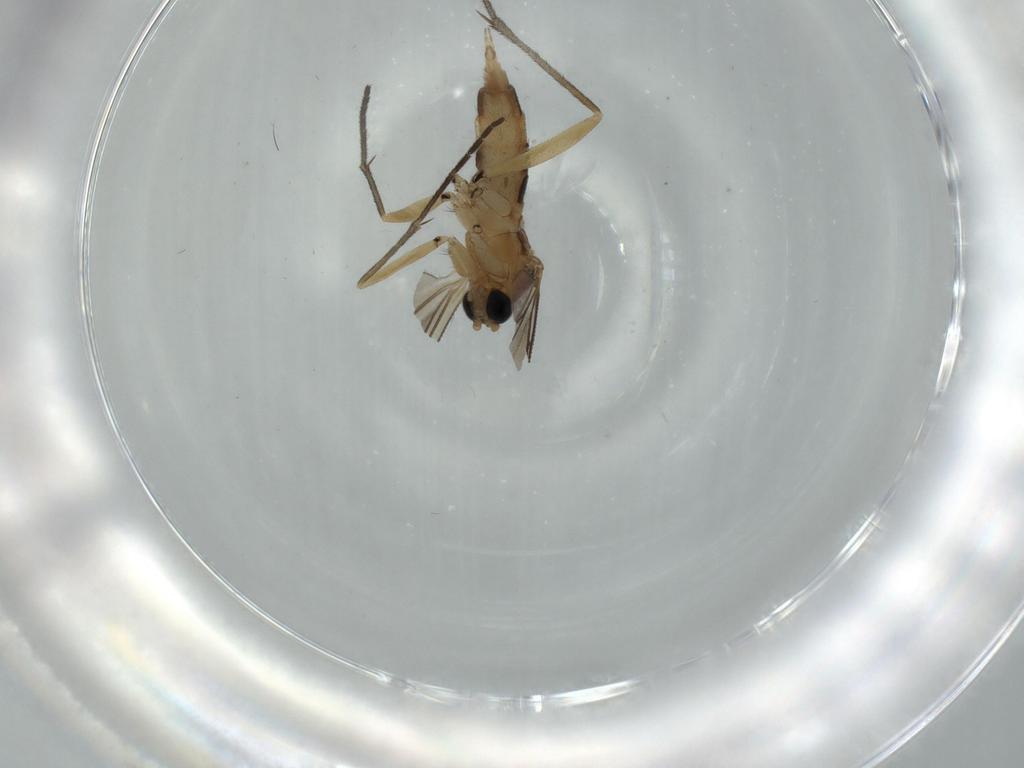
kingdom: Animalia
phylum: Arthropoda
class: Insecta
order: Diptera
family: Sciaridae
